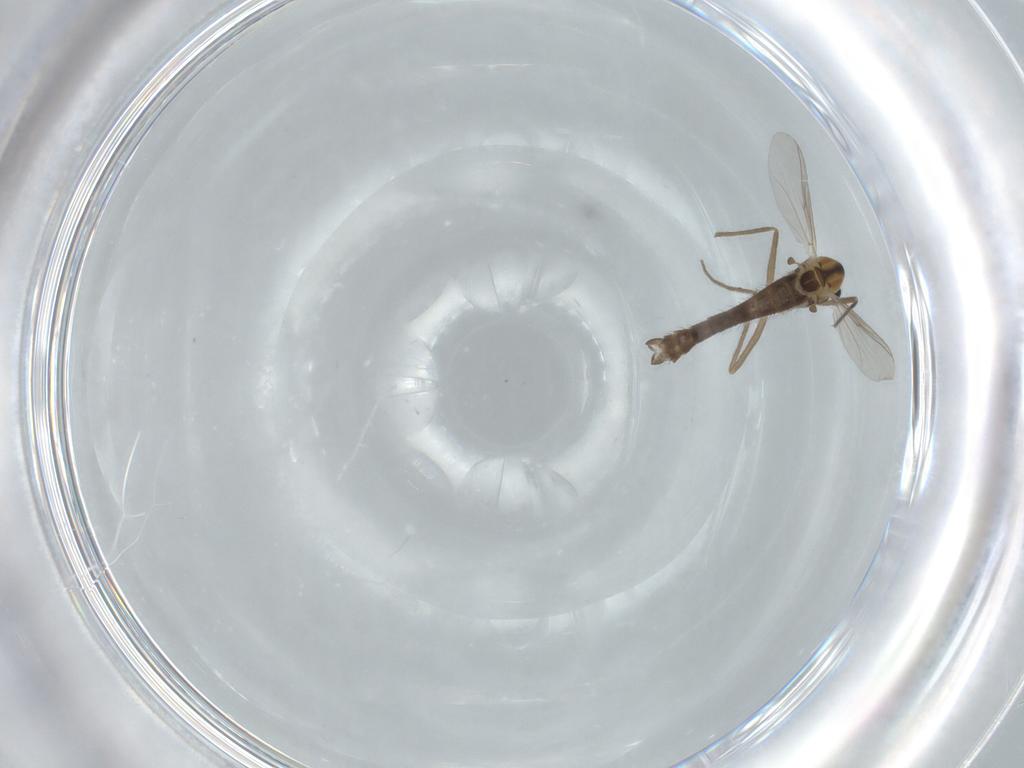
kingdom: Animalia
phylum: Arthropoda
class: Insecta
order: Diptera
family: Chironomidae
